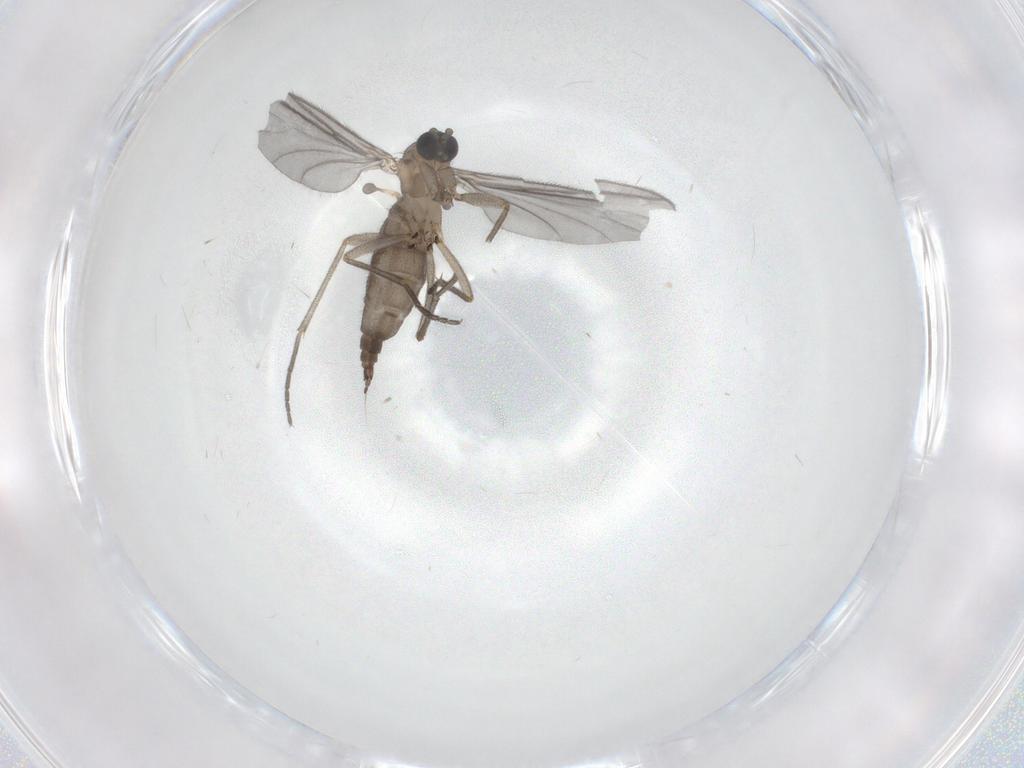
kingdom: Animalia
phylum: Arthropoda
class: Insecta
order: Diptera
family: Sciaridae
